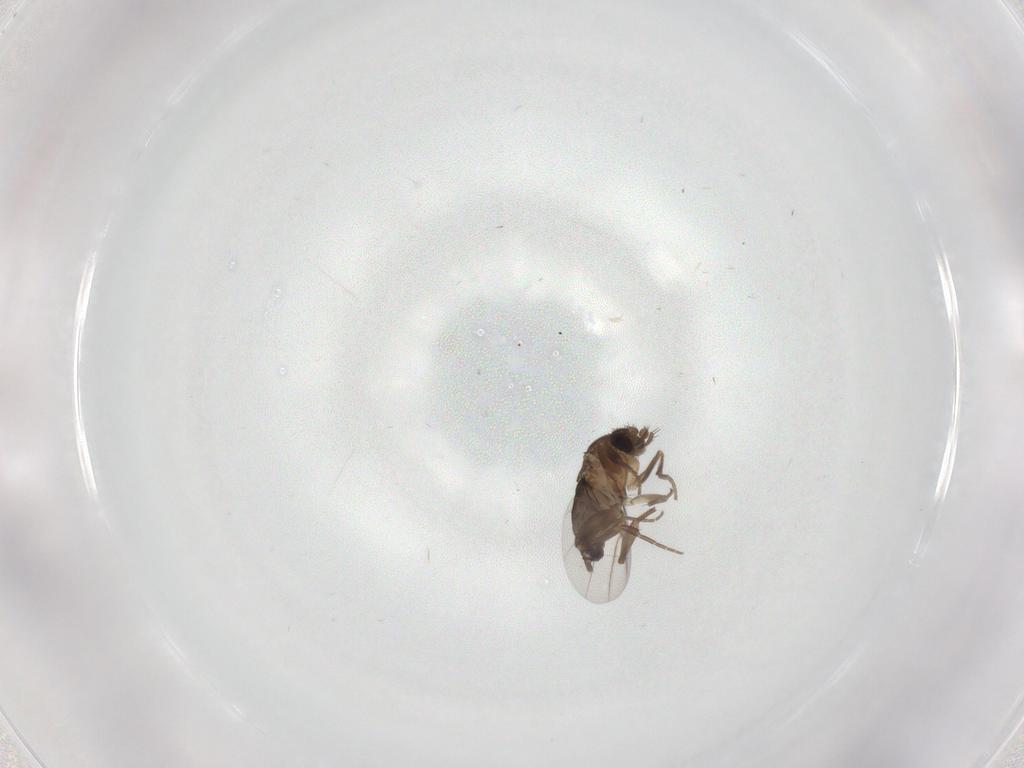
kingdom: Animalia
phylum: Arthropoda
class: Insecta
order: Diptera
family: Phoridae
